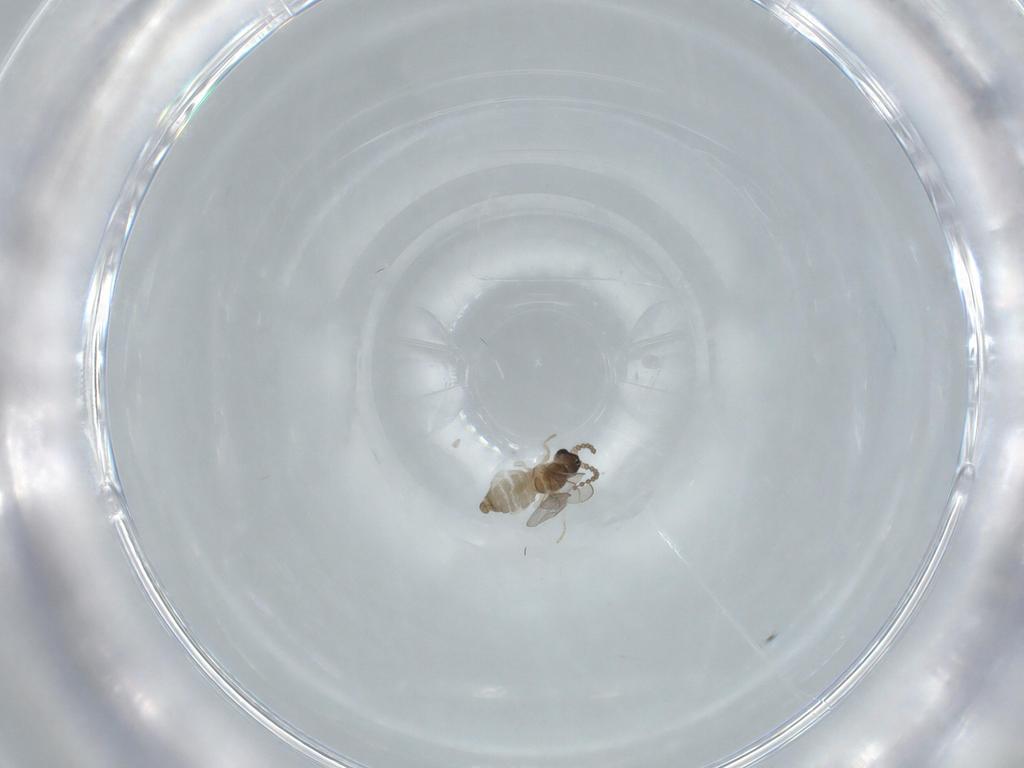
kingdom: Animalia
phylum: Arthropoda
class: Insecta
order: Diptera
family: Cecidomyiidae
